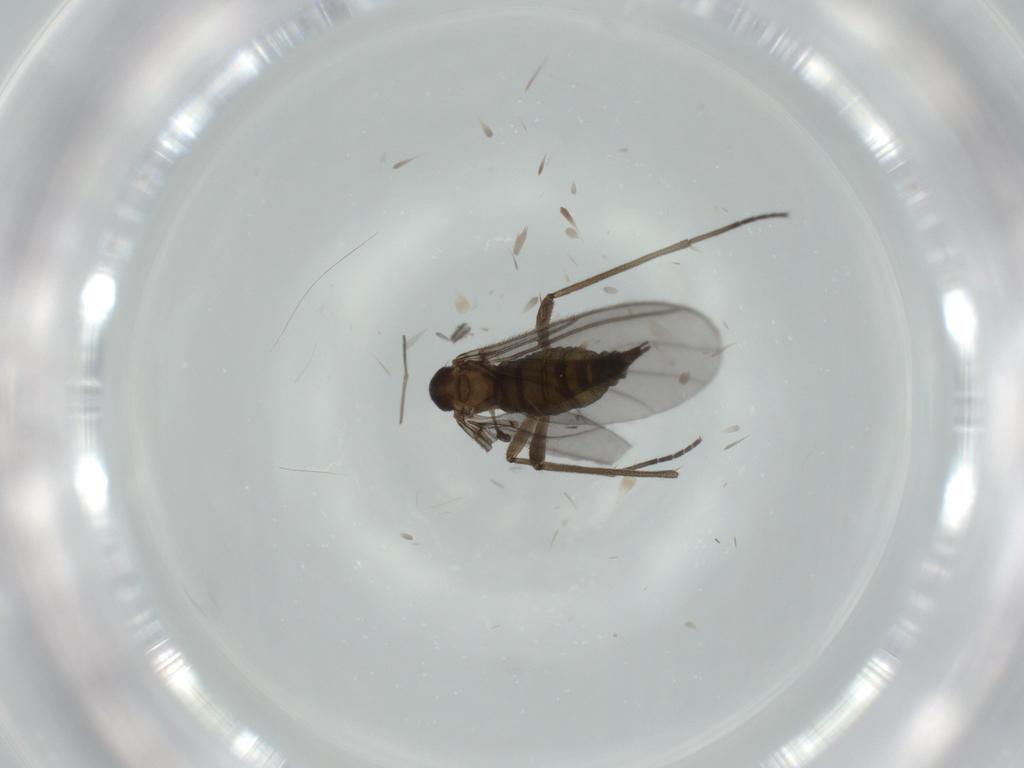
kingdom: Animalia
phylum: Arthropoda
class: Insecta
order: Diptera
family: Sciaridae
